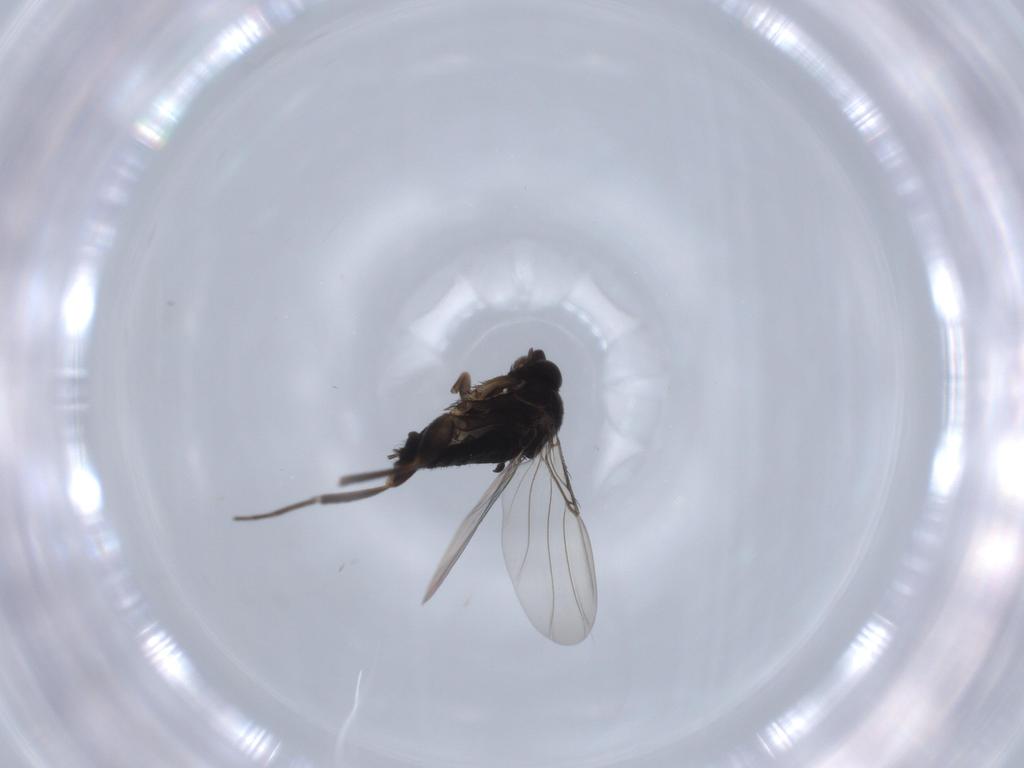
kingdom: Animalia
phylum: Arthropoda
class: Insecta
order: Diptera
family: Phoridae
